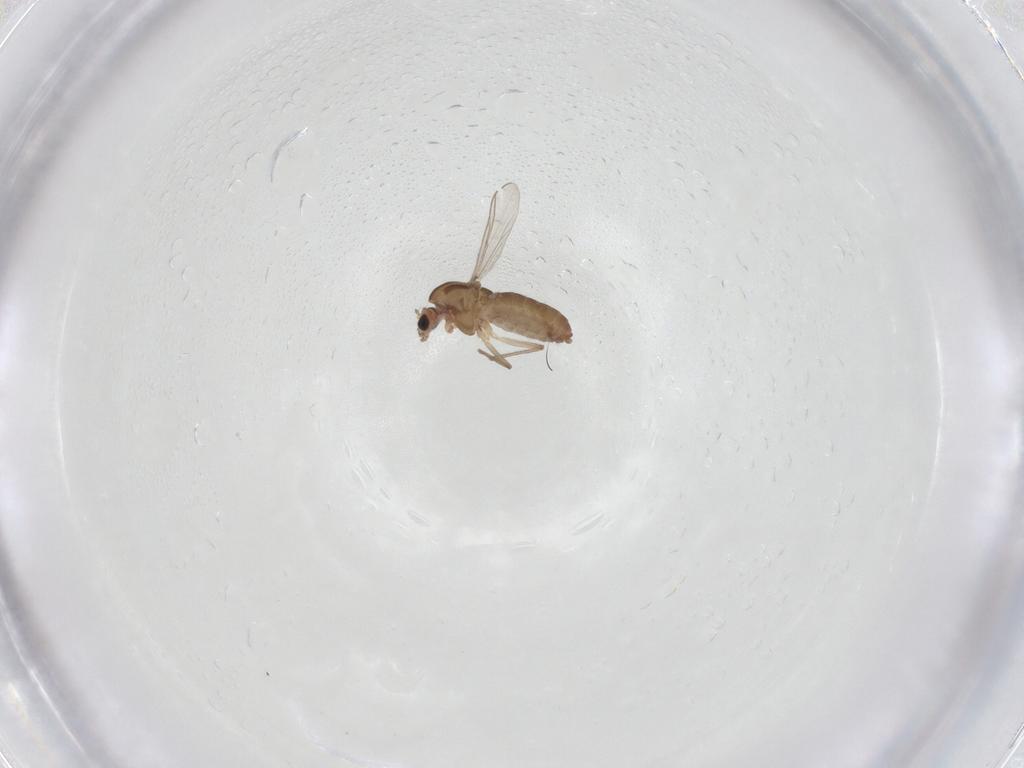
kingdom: Animalia
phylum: Arthropoda
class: Insecta
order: Diptera
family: Chironomidae
